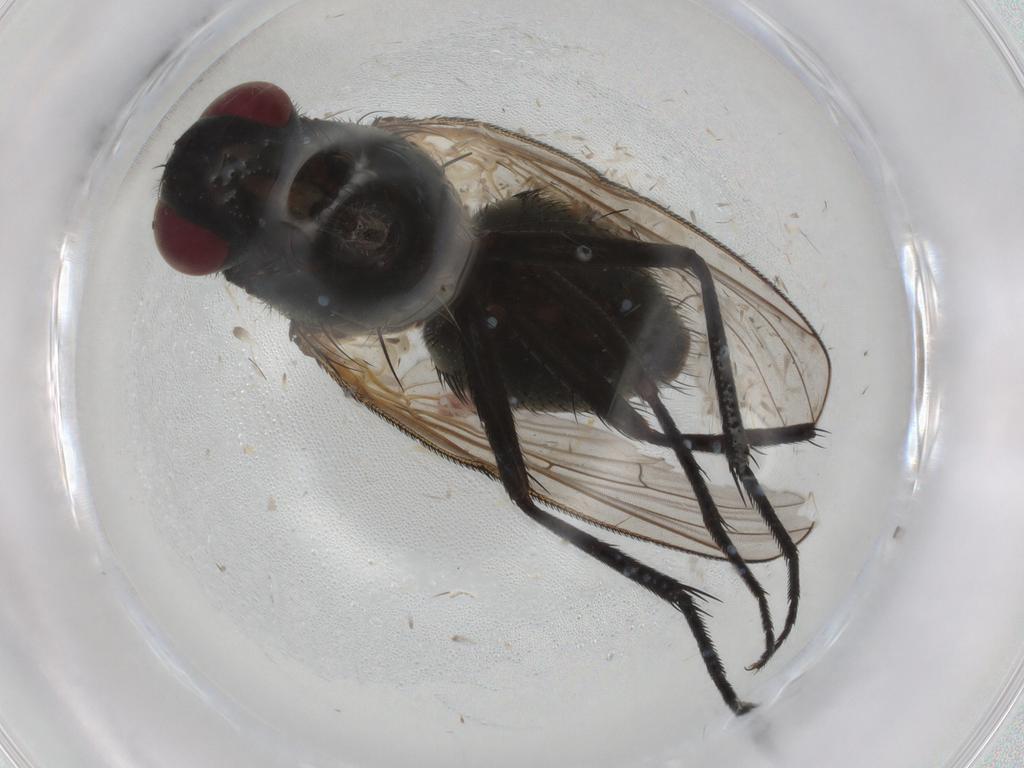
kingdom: Animalia
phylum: Arthropoda
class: Insecta
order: Diptera
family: Muscidae
